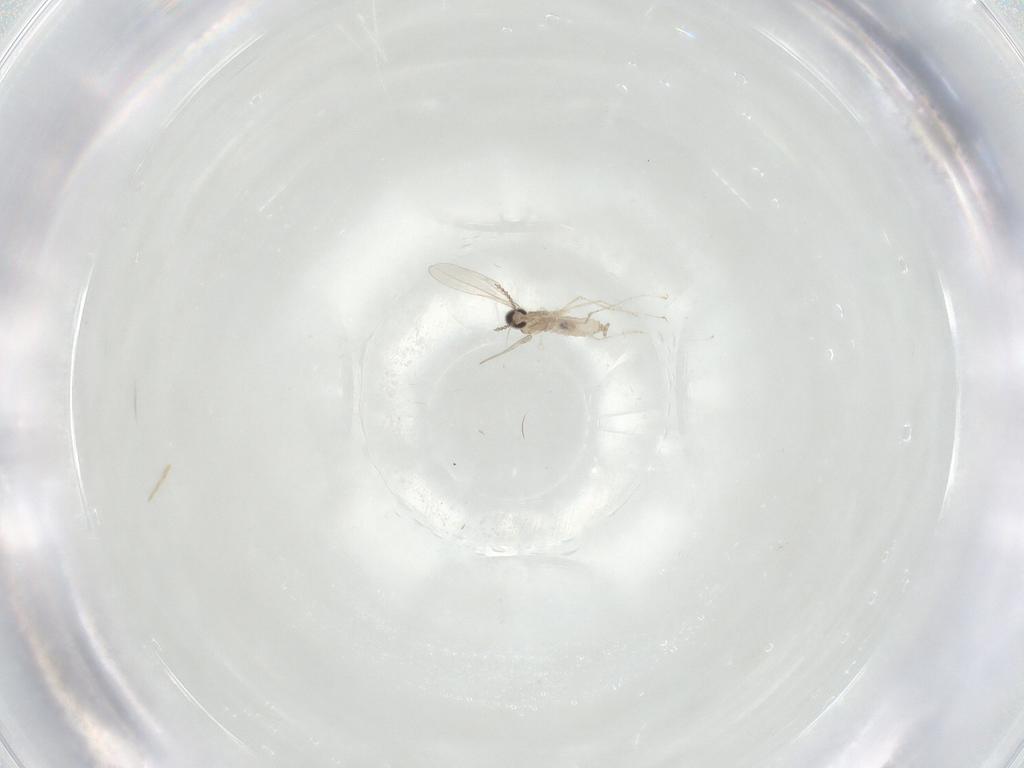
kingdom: Animalia
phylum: Arthropoda
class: Insecta
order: Diptera
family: Cecidomyiidae
